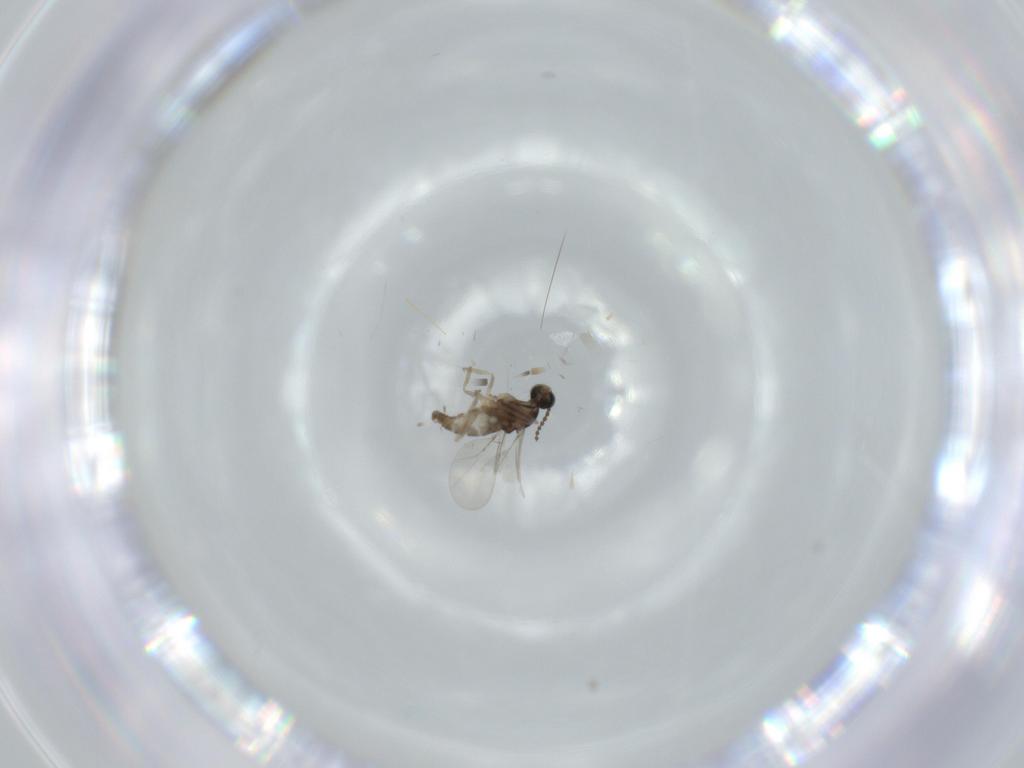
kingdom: Animalia
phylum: Arthropoda
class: Insecta
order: Diptera
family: Cecidomyiidae
